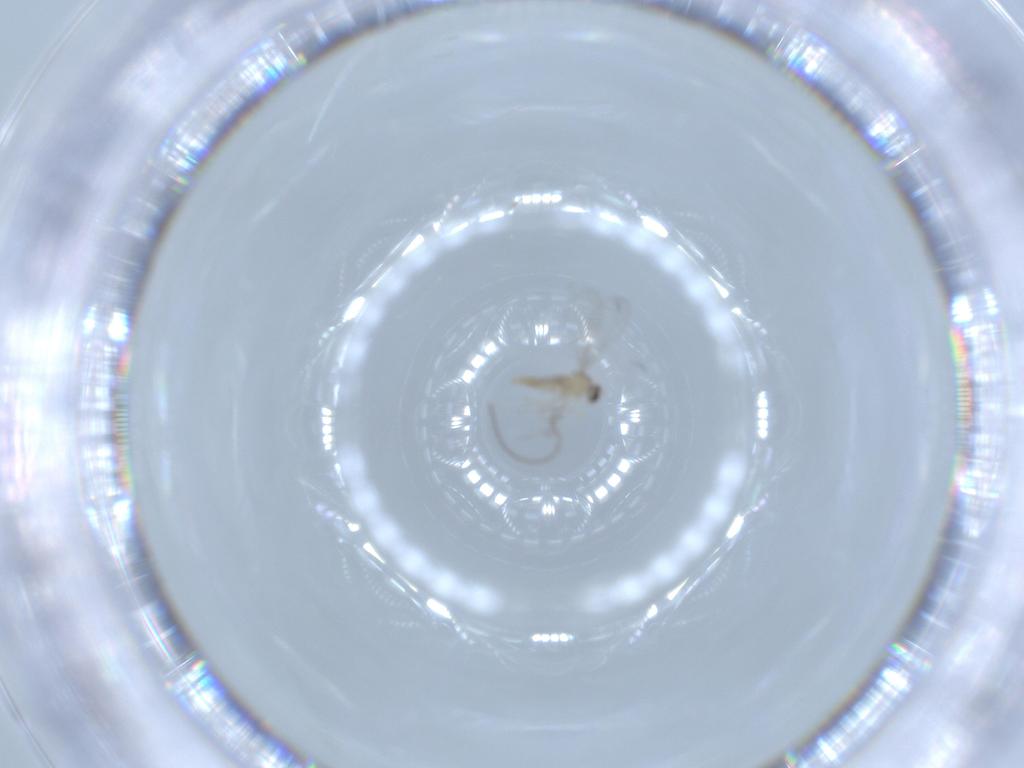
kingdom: Animalia
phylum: Arthropoda
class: Insecta
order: Diptera
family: Cecidomyiidae
